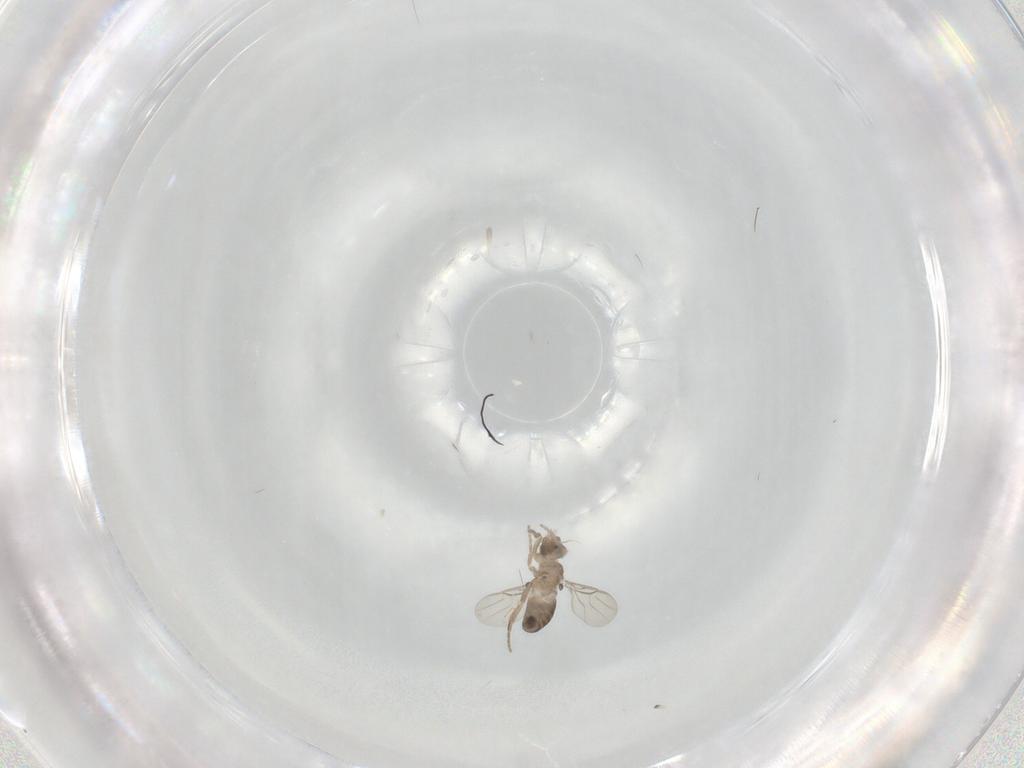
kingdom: Animalia
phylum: Arthropoda
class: Insecta
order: Diptera
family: Phoridae
